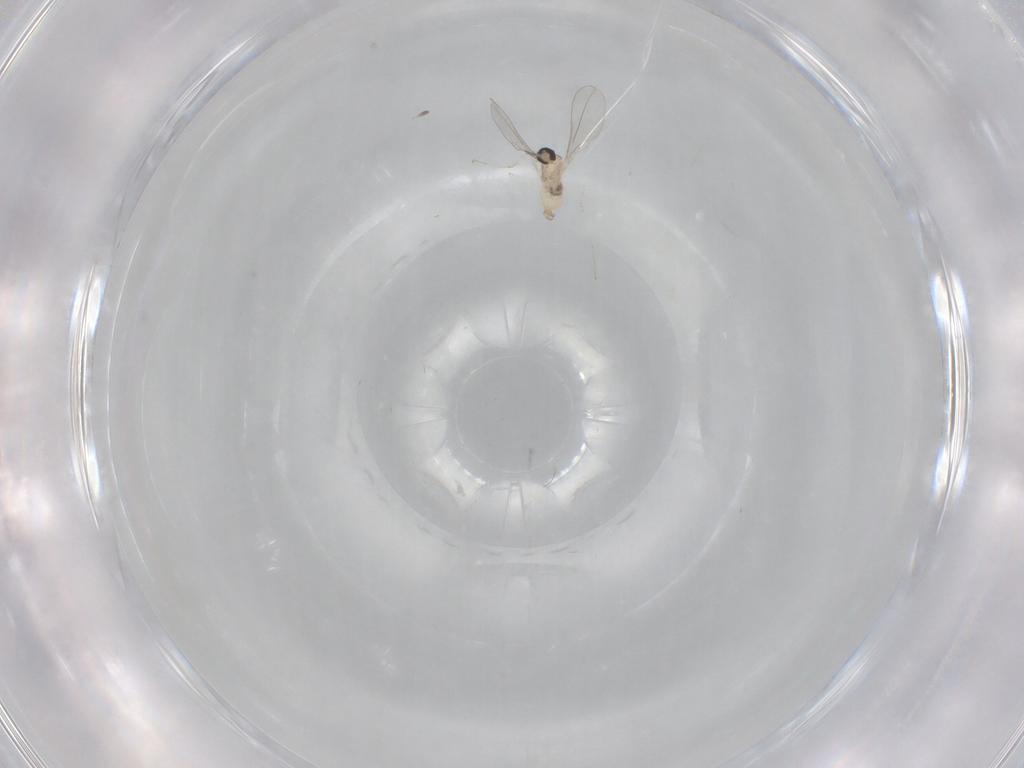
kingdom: Animalia
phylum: Arthropoda
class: Insecta
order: Diptera
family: Cecidomyiidae
